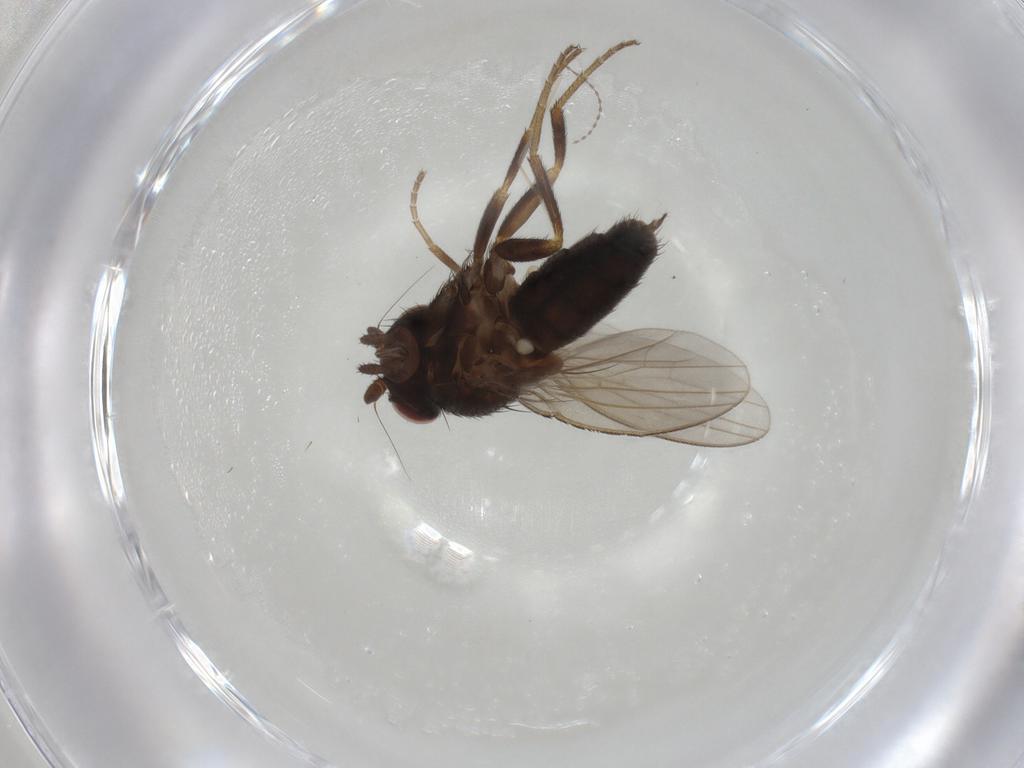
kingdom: Animalia
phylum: Arthropoda
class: Insecta
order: Diptera
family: Milichiidae
